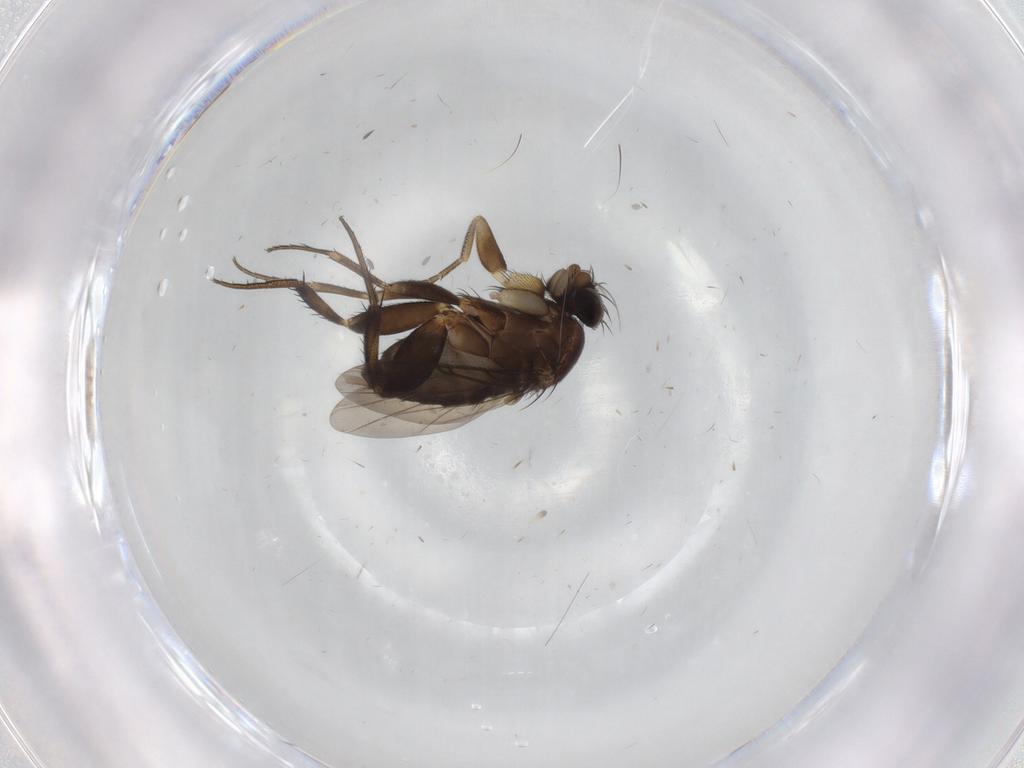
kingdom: Animalia
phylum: Arthropoda
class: Insecta
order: Diptera
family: Sciaridae
